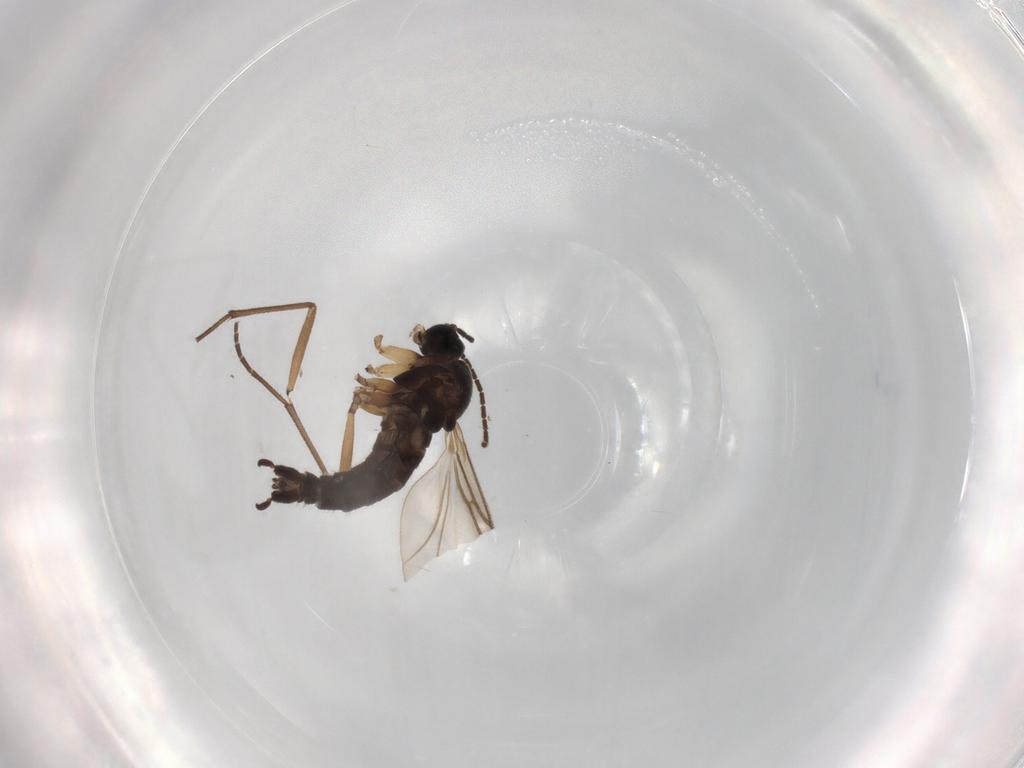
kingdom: Animalia
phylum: Arthropoda
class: Insecta
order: Diptera
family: Sciaridae
